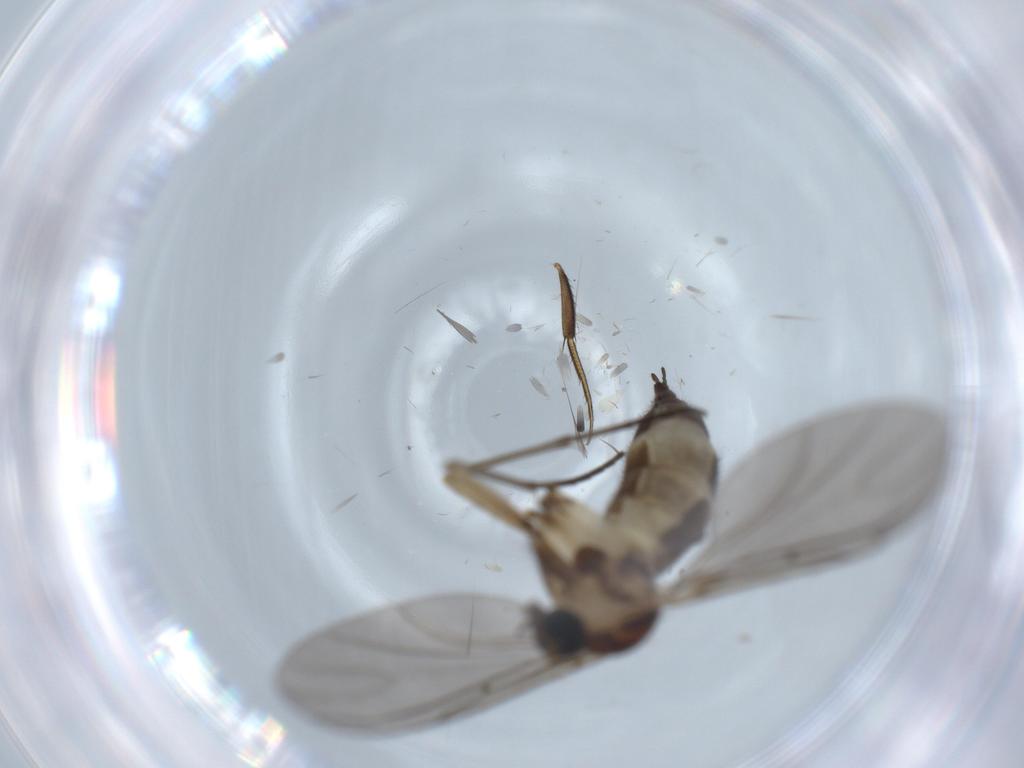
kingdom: Animalia
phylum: Arthropoda
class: Insecta
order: Diptera
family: Sciaridae
